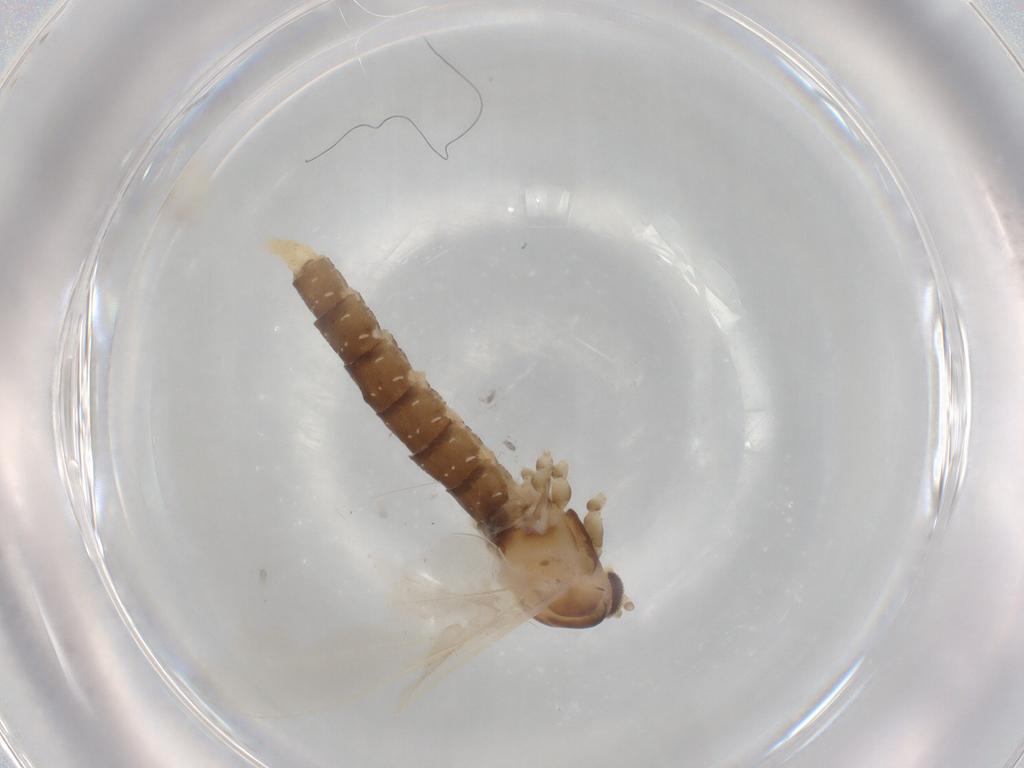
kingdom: Animalia
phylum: Arthropoda
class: Insecta
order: Diptera
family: Cecidomyiidae
